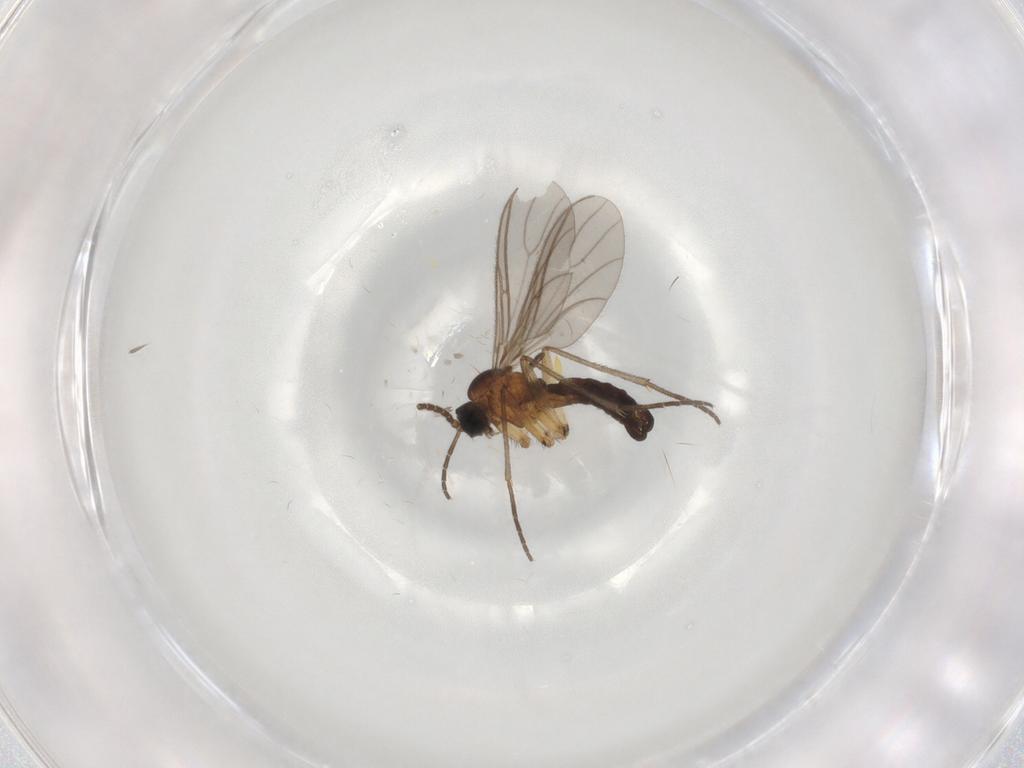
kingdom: Animalia
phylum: Arthropoda
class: Insecta
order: Diptera
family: Sciaridae
